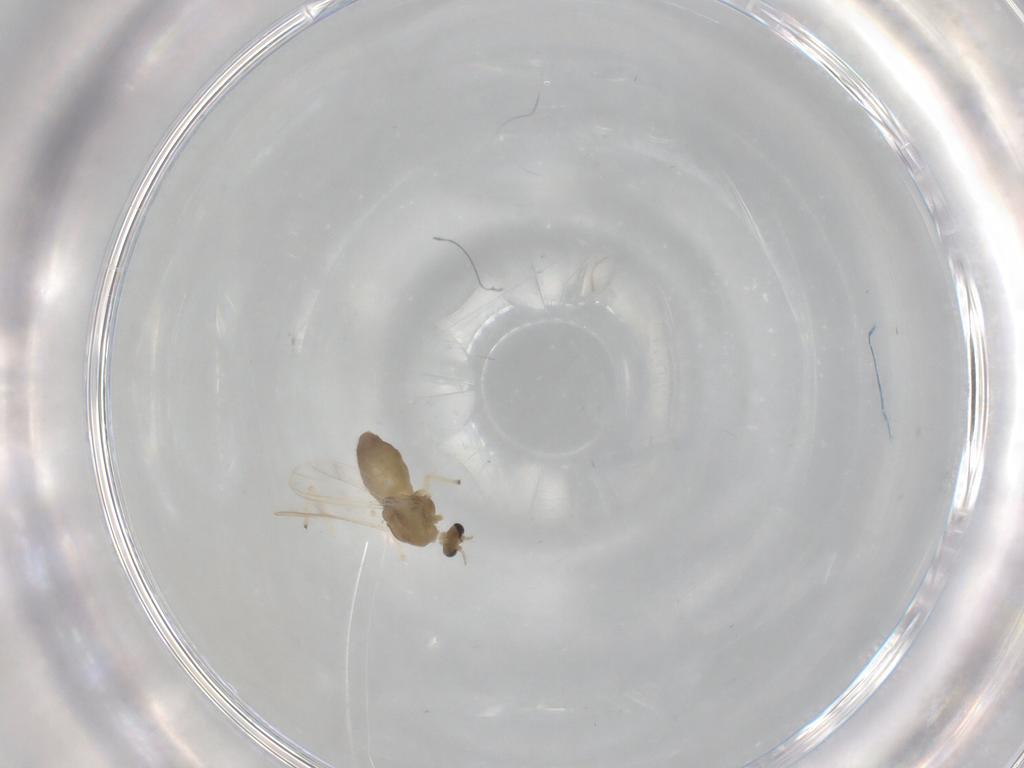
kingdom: Animalia
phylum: Arthropoda
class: Insecta
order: Diptera
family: Chironomidae
